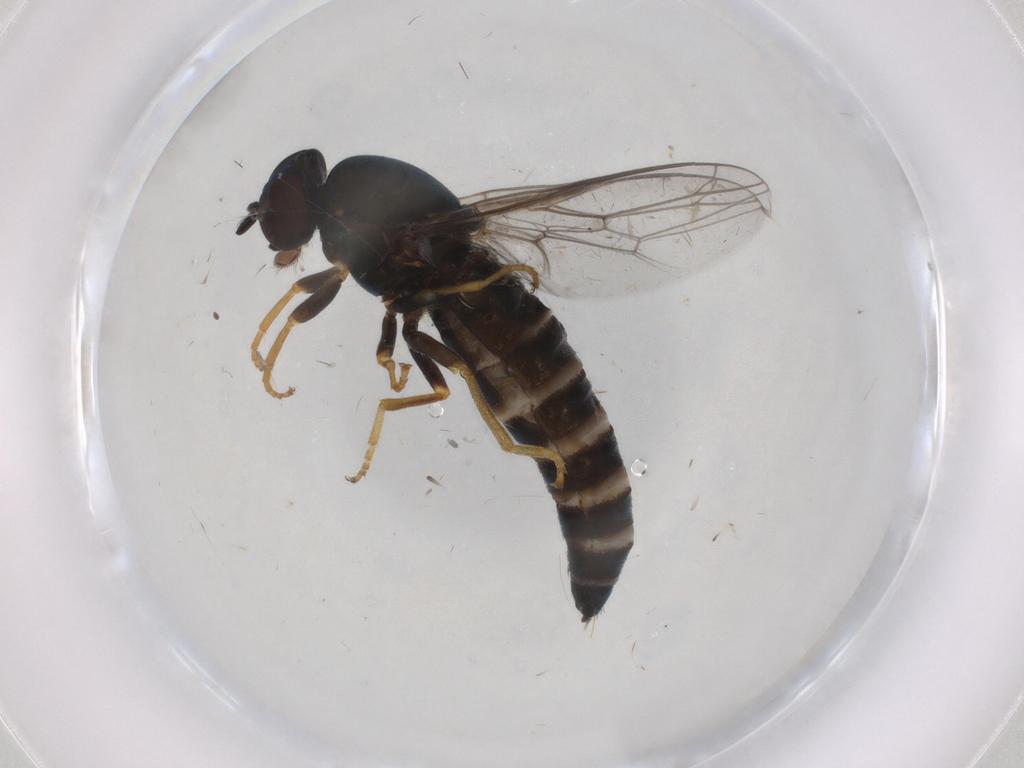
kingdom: Animalia
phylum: Arthropoda
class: Insecta
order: Diptera
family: Scenopinidae
